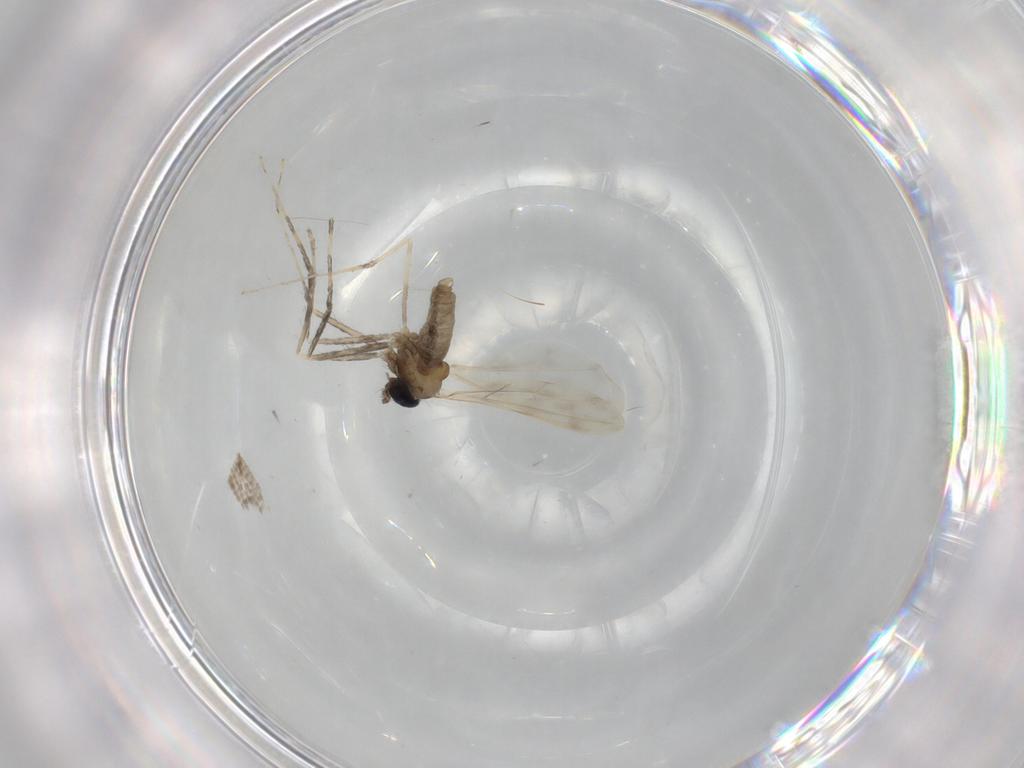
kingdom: Animalia
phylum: Arthropoda
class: Insecta
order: Diptera
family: Cecidomyiidae
